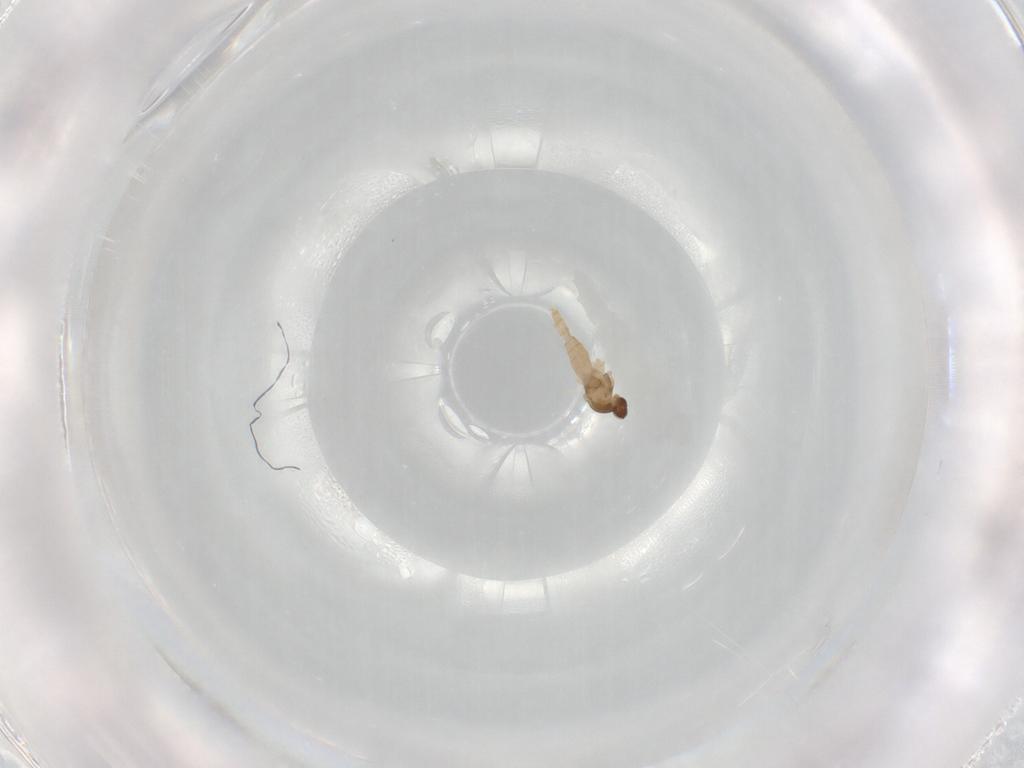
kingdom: Animalia
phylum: Arthropoda
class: Insecta
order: Diptera
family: Cecidomyiidae
